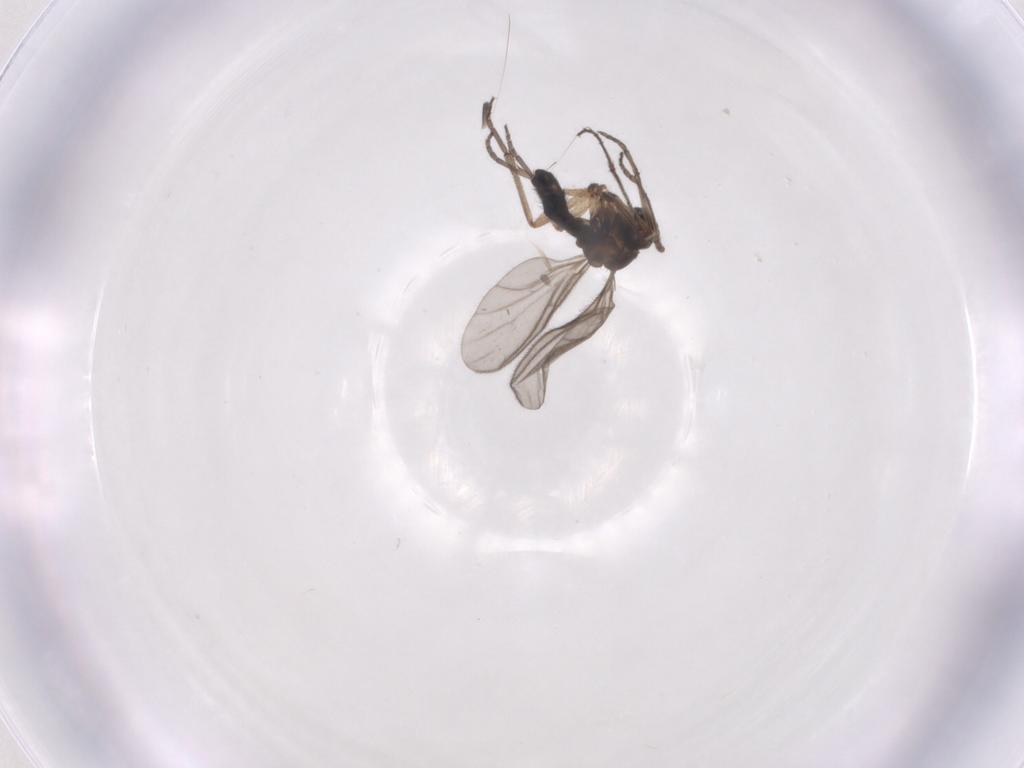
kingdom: Animalia
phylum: Arthropoda
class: Insecta
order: Diptera
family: Sciaridae
